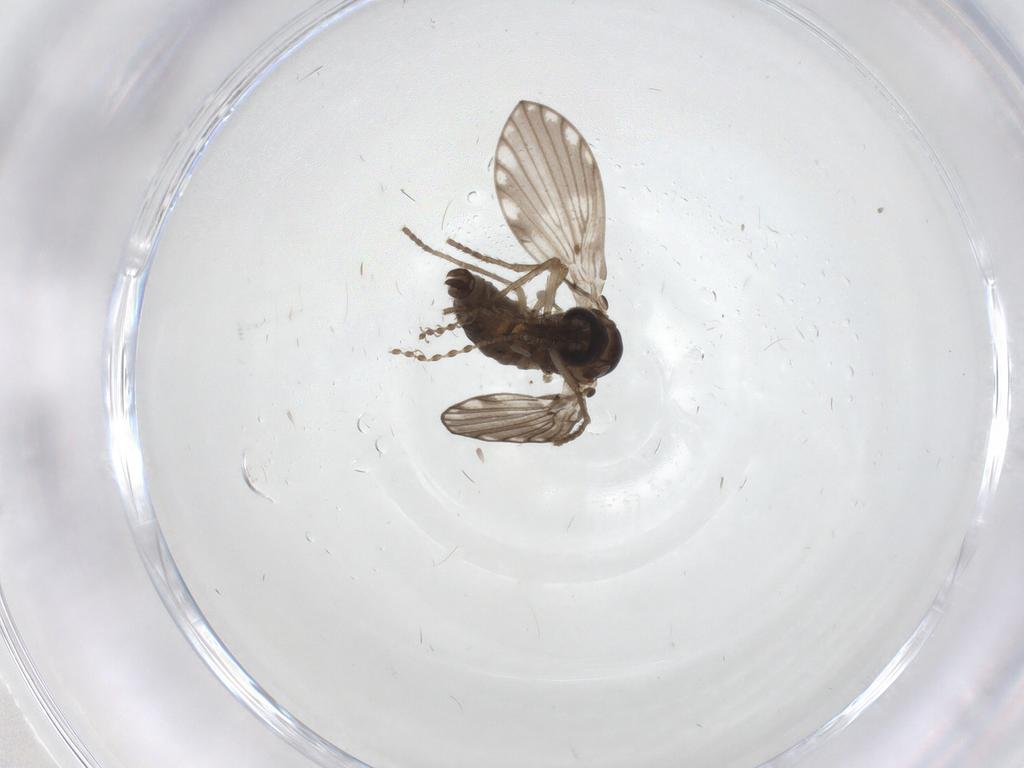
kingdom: Animalia
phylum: Arthropoda
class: Insecta
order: Diptera
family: Psychodidae
